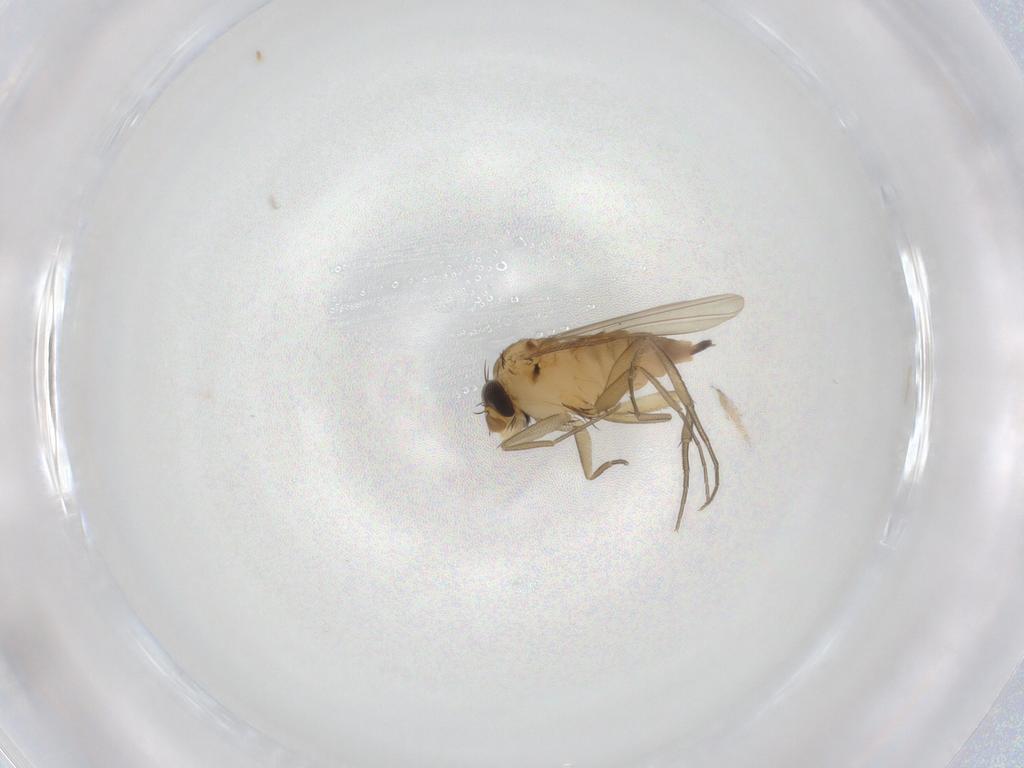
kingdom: Animalia
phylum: Arthropoda
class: Insecta
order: Diptera
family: Phoridae
